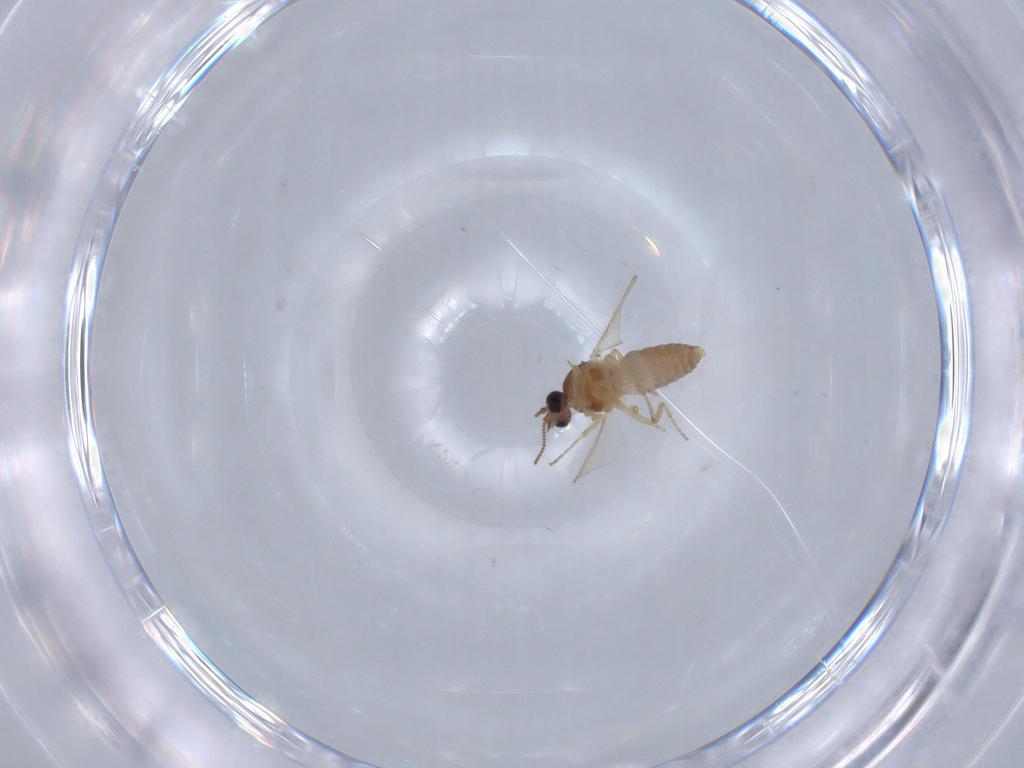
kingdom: Animalia
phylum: Arthropoda
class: Insecta
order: Diptera
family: Ceratopogonidae
